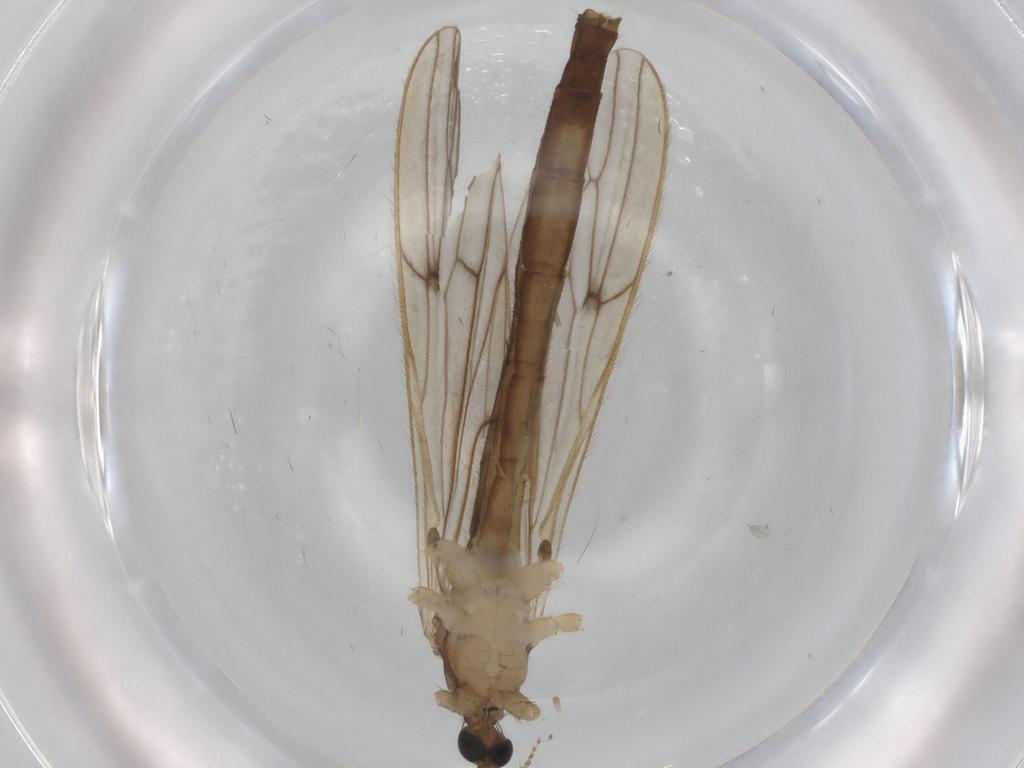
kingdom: Animalia
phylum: Arthropoda
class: Insecta
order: Diptera
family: Limoniidae
